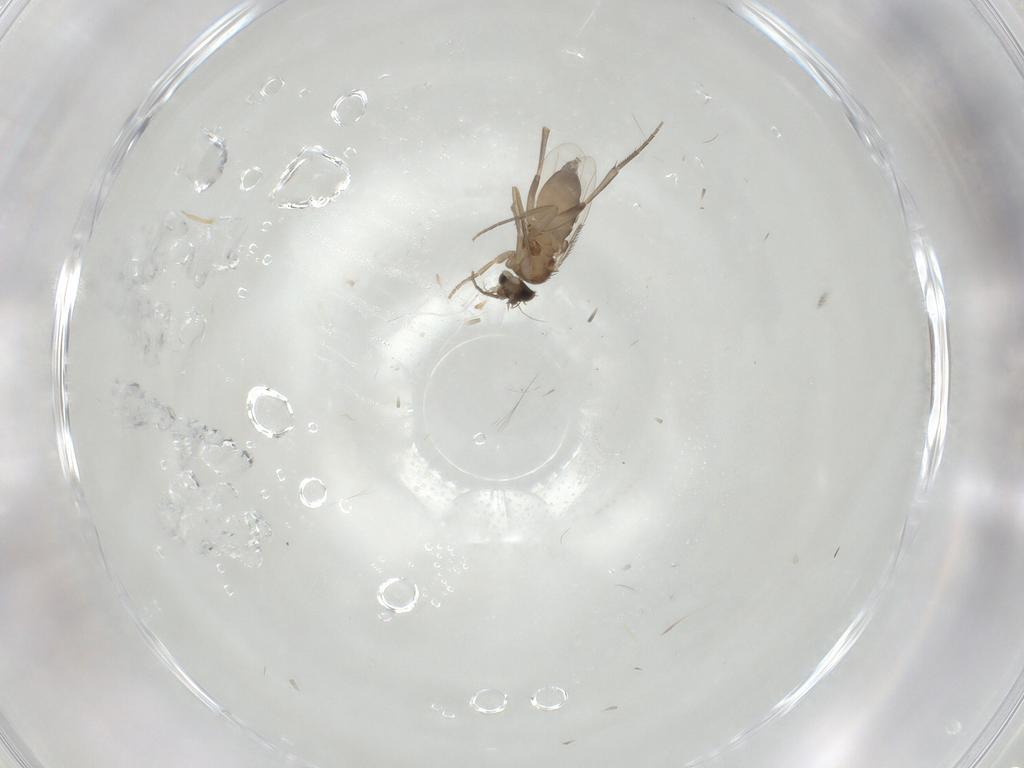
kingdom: Animalia
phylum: Arthropoda
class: Insecta
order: Diptera
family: Phoridae
